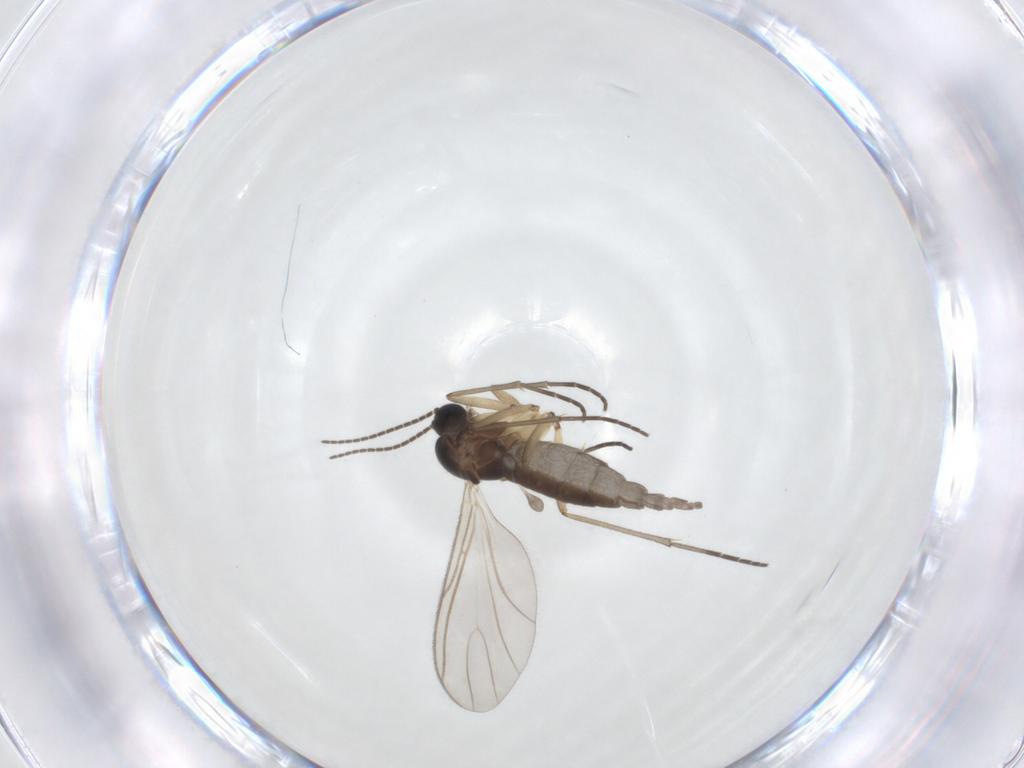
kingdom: Animalia
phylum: Arthropoda
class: Insecta
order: Diptera
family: Sciaridae
